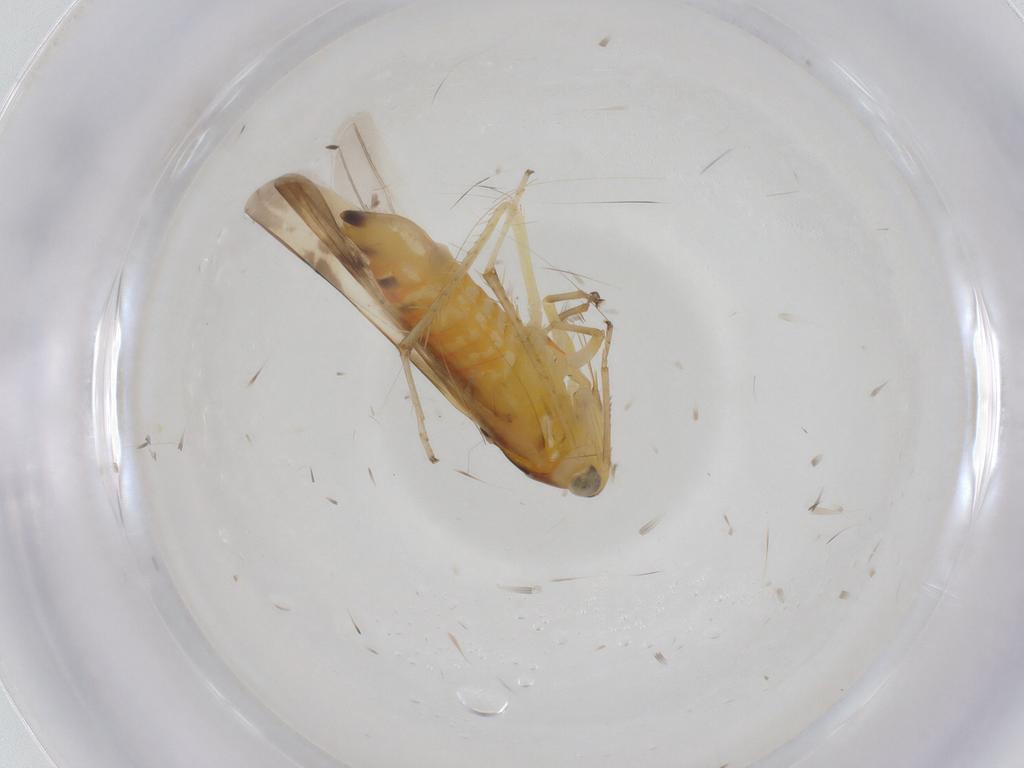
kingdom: Animalia
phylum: Arthropoda
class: Insecta
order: Hemiptera
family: Cicadellidae
